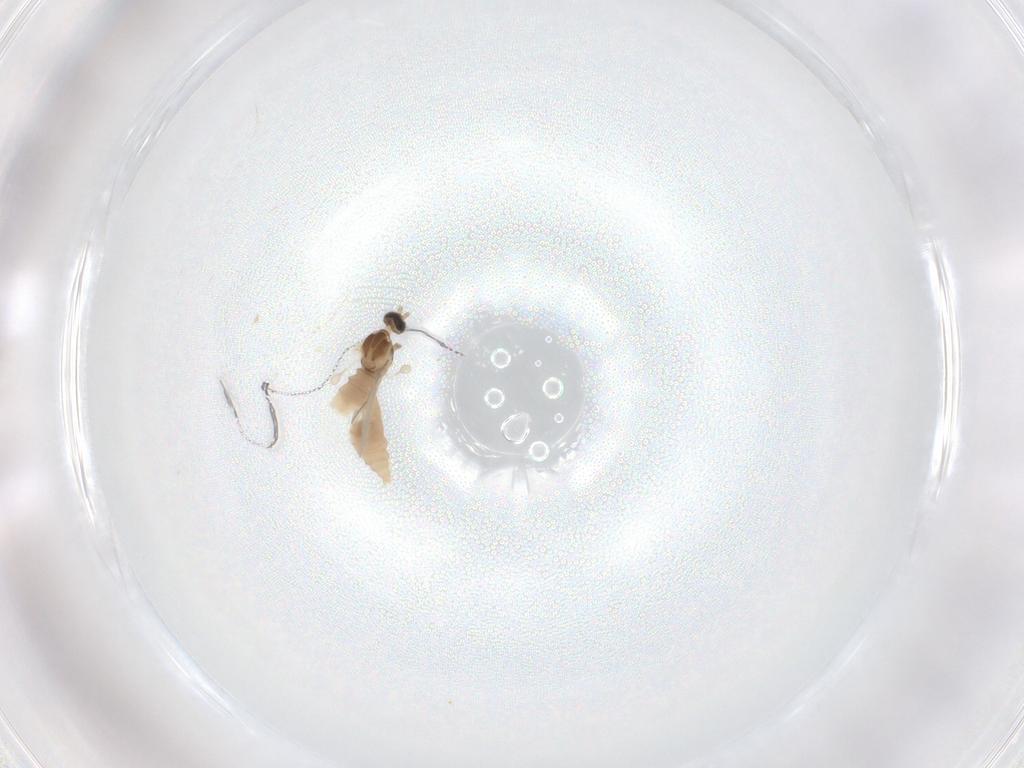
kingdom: Animalia
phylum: Arthropoda
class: Insecta
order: Diptera
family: Cecidomyiidae
